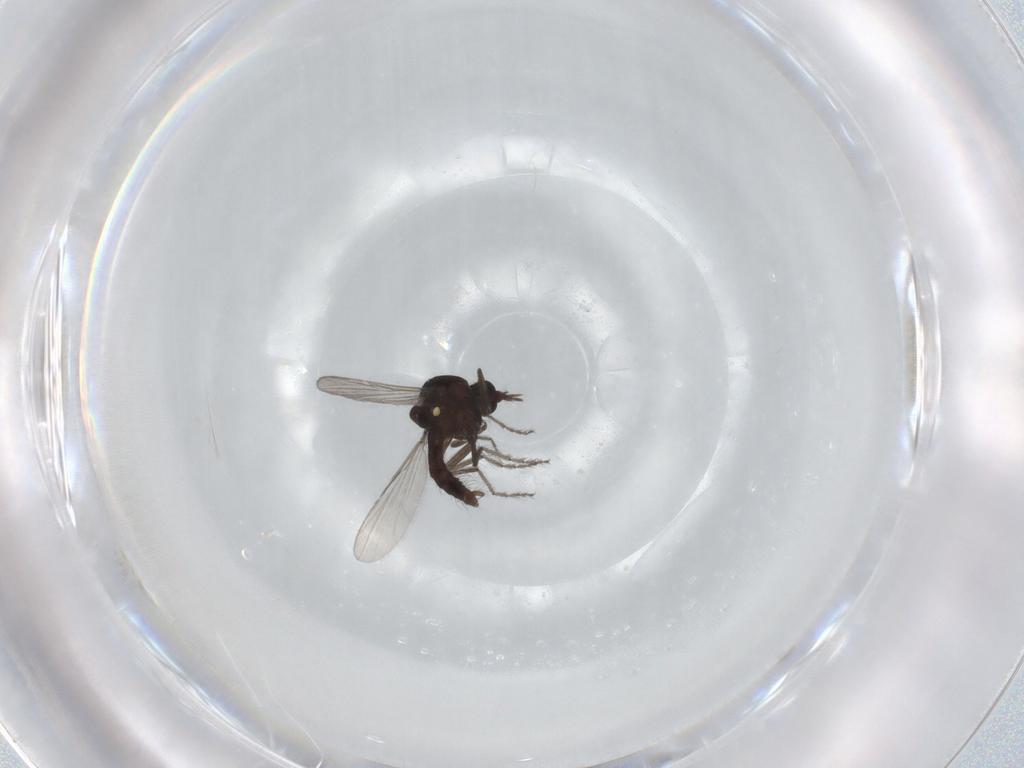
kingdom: Animalia
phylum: Arthropoda
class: Insecta
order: Diptera
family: Ceratopogonidae
